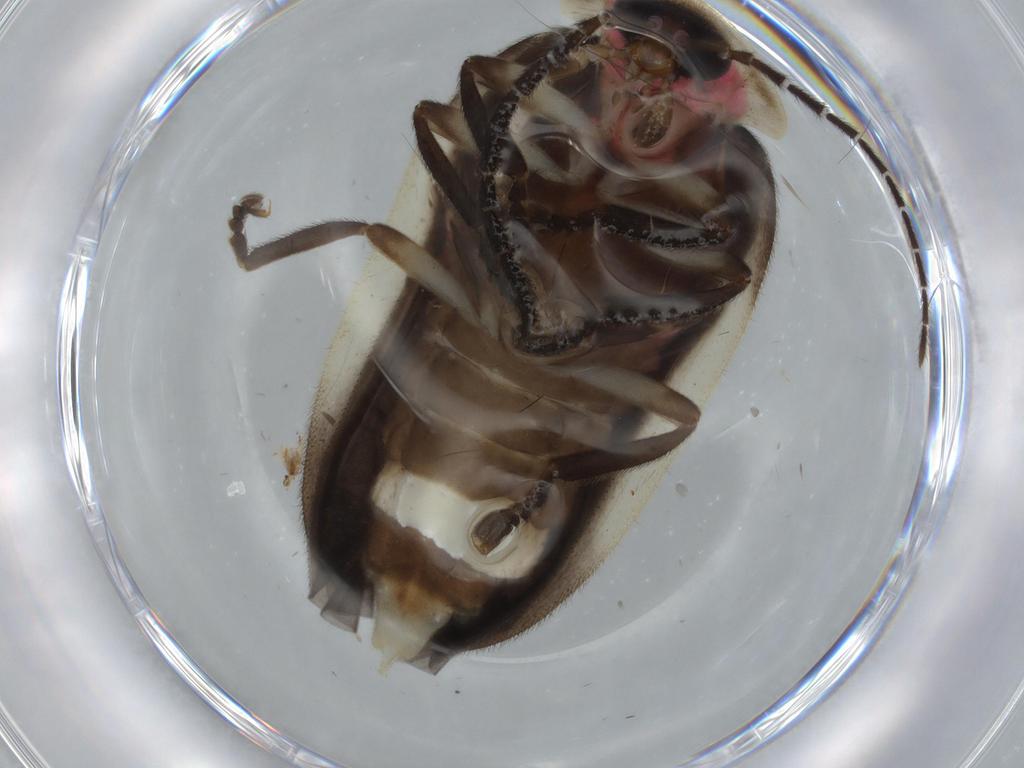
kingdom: Animalia
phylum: Arthropoda
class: Insecta
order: Coleoptera
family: Lampyridae
